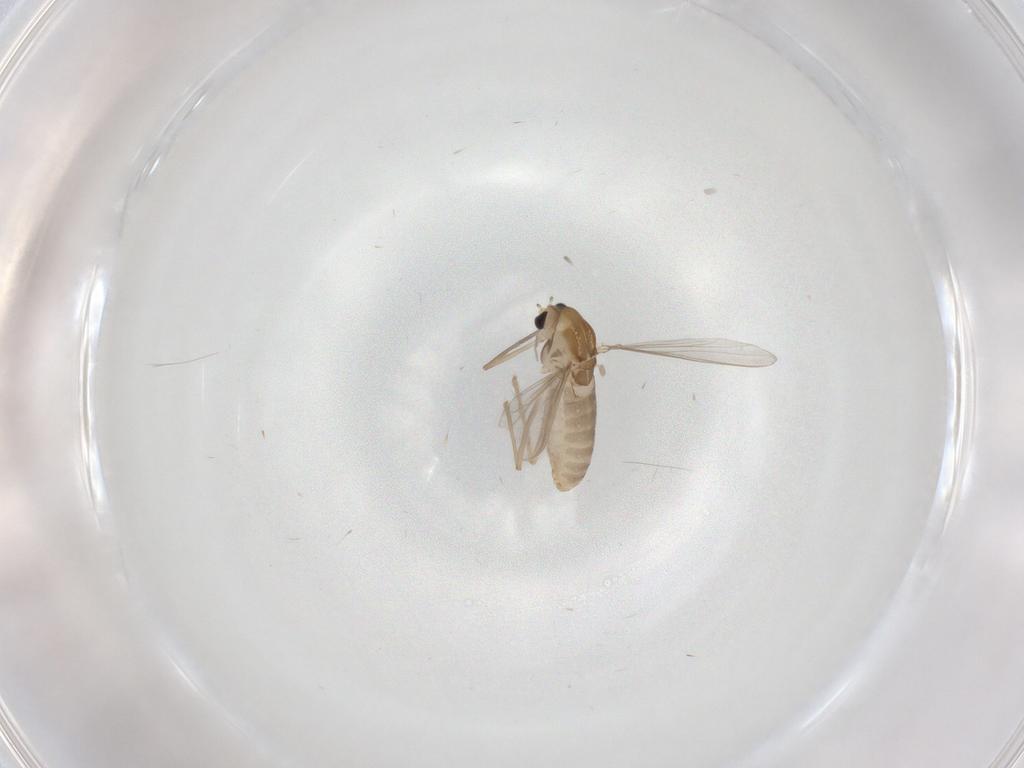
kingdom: Animalia
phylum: Arthropoda
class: Insecta
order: Diptera
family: Chironomidae
